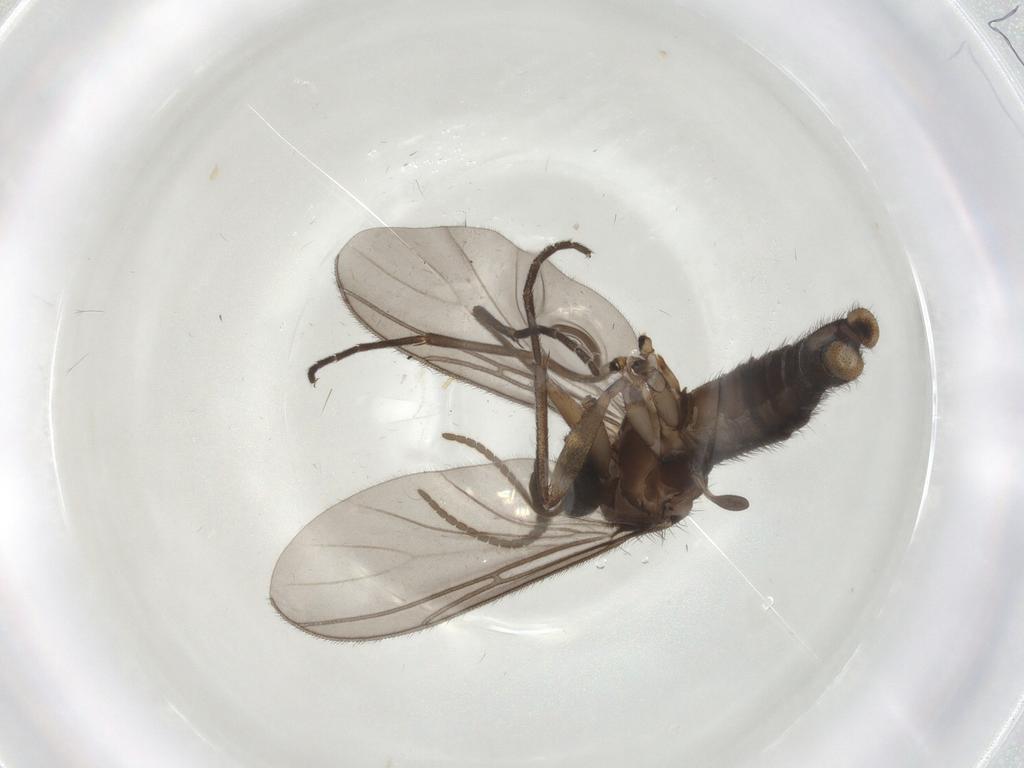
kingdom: Animalia
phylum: Arthropoda
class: Insecta
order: Diptera
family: Sciaridae
